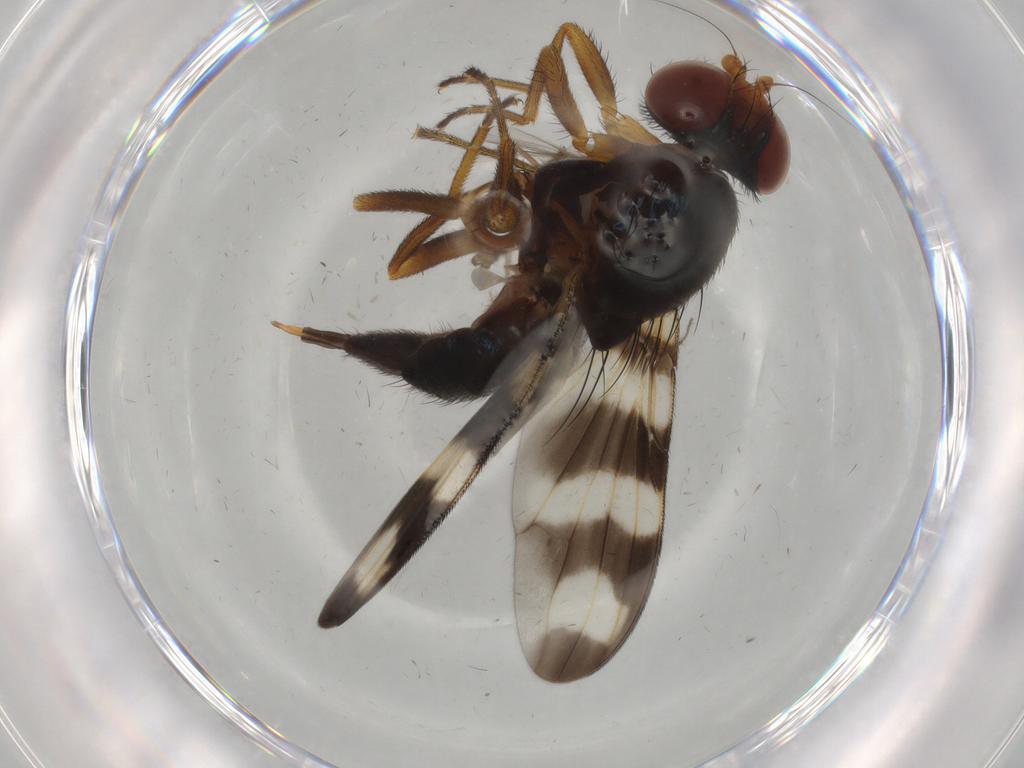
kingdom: Animalia
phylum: Arthropoda
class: Insecta
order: Diptera
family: Chironomidae
